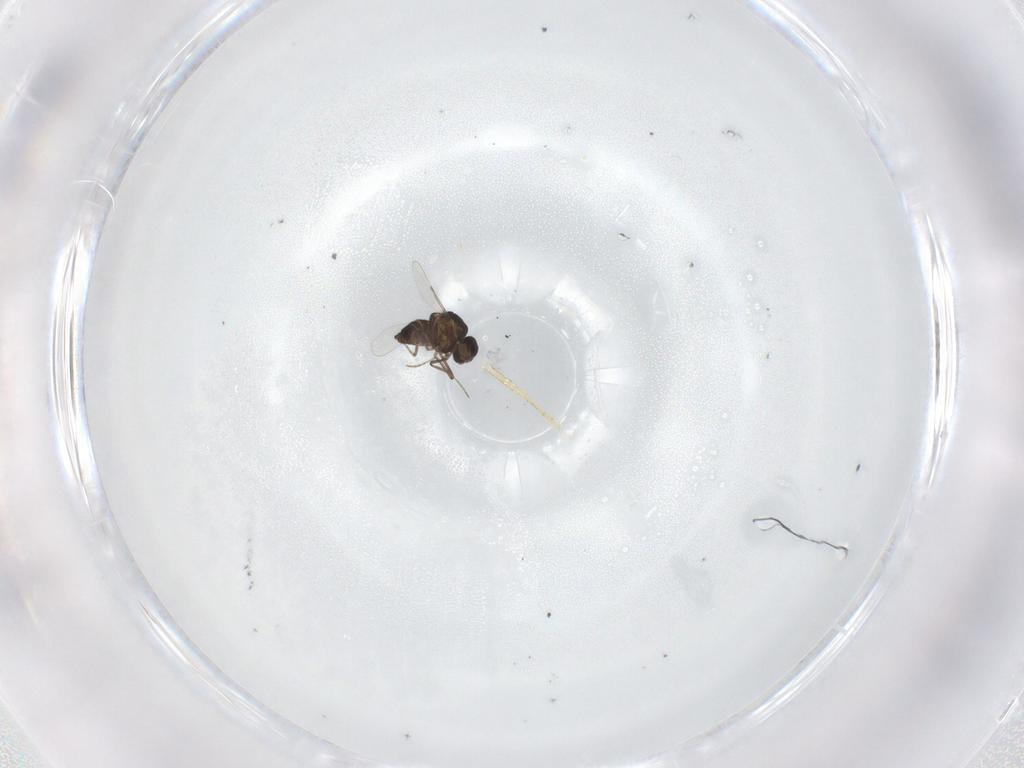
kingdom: Animalia
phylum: Arthropoda
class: Insecta
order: Diptera
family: Ceratopogonidae
